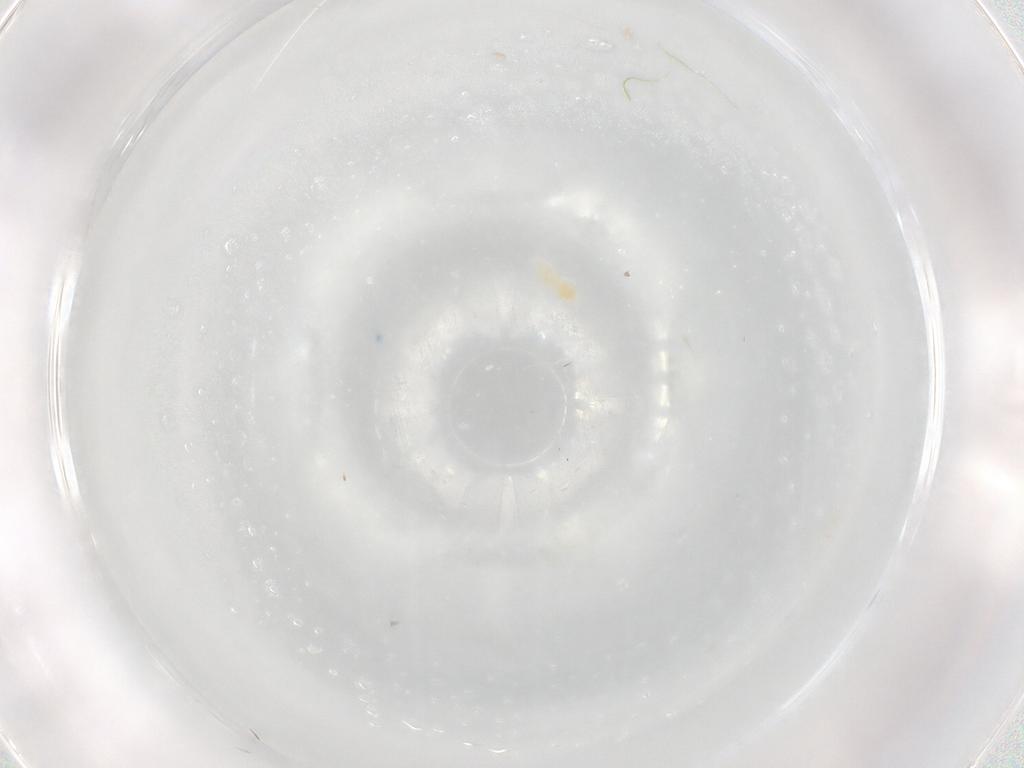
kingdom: Animalia
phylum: Arthropoda
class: Arachnida
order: Trombidiformes
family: Eupodidae
